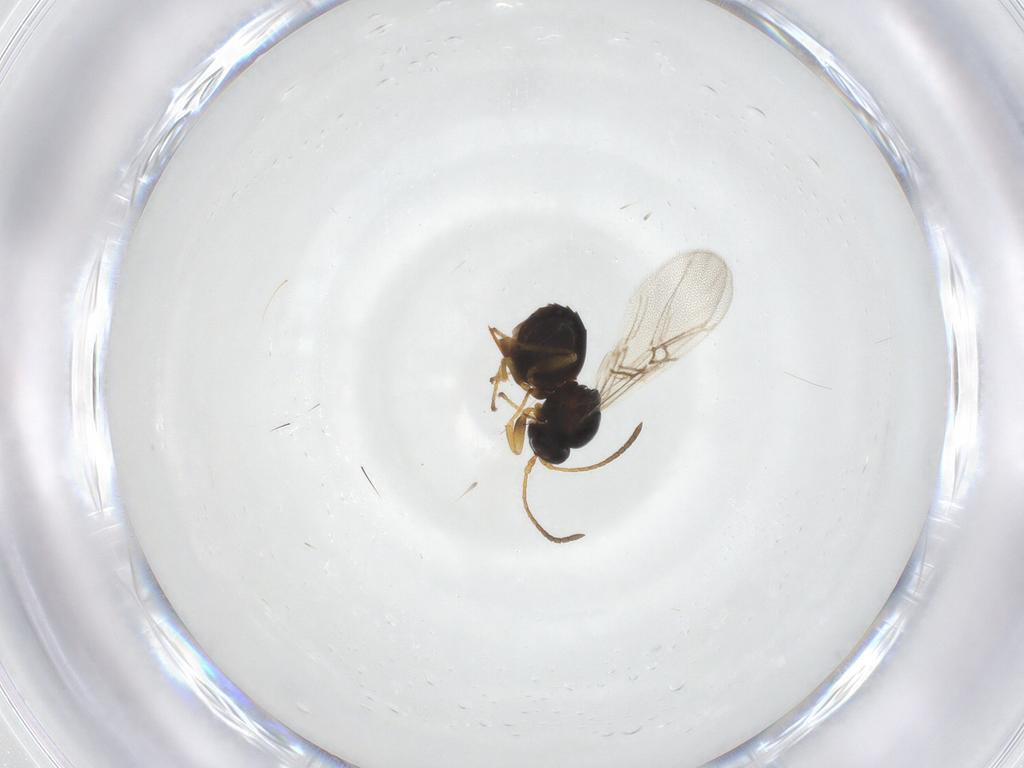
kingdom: Animalia
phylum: Arthropoda
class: Insecta
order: Hymenoptera
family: Cynipidae
